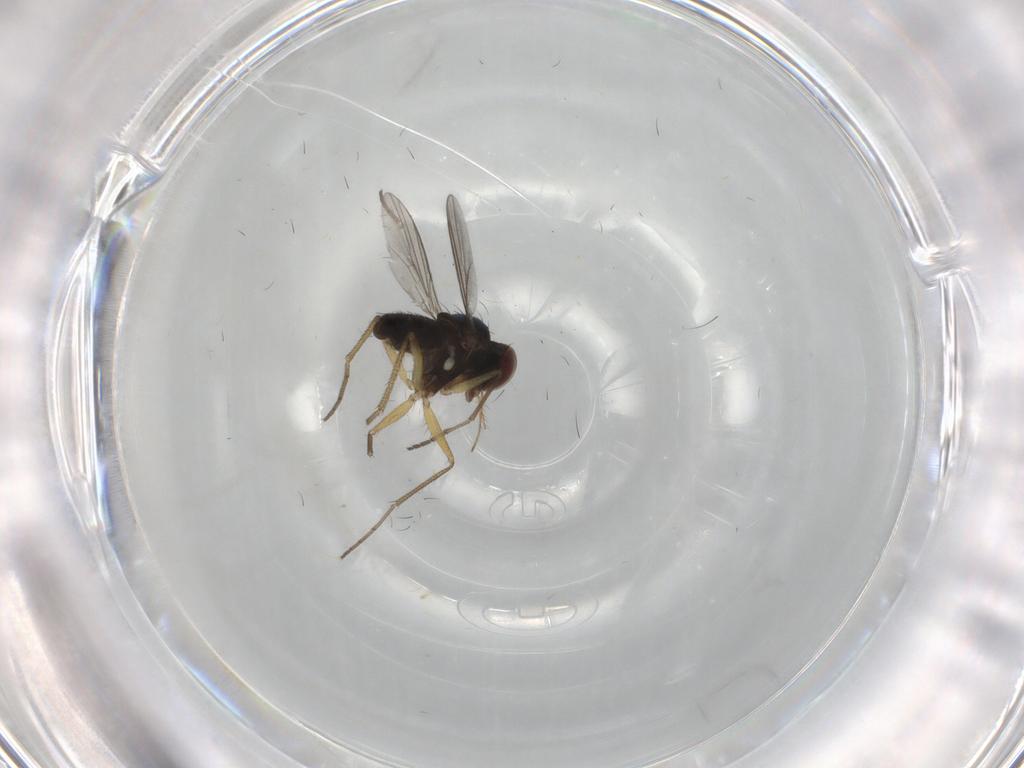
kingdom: Animalia
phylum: Arthropoda
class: Insecta
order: Diptera
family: Dolichopodidae
